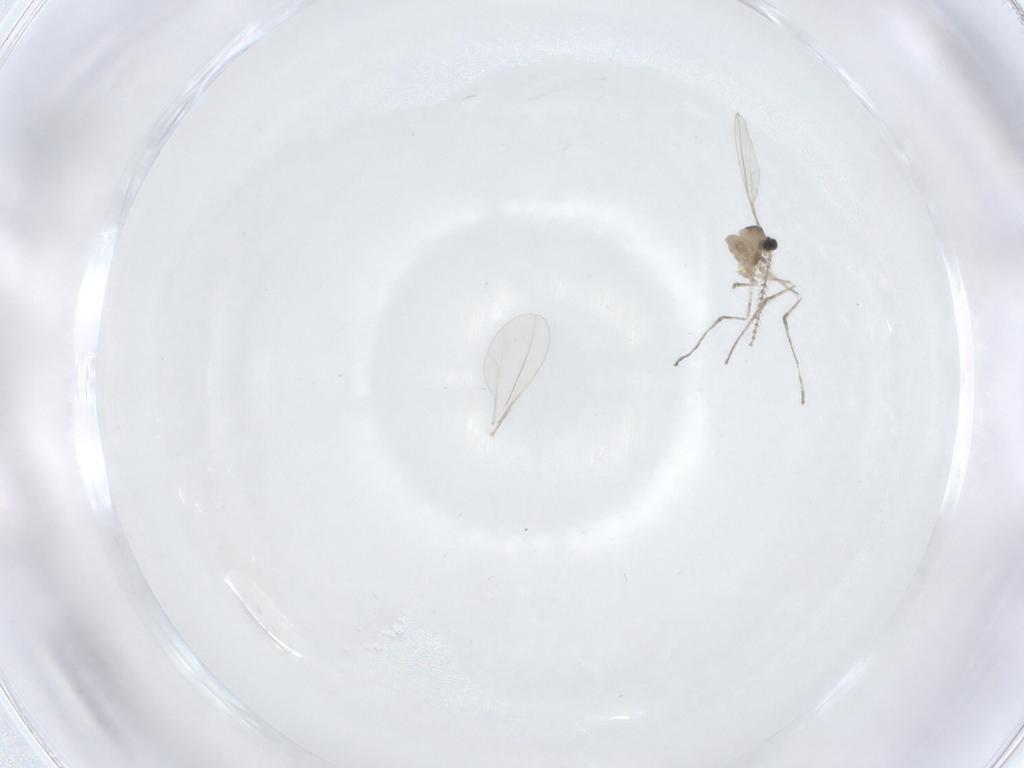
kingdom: Animalia
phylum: Arthropoda
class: Insecta
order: Diptera
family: Cecidomyiidae
